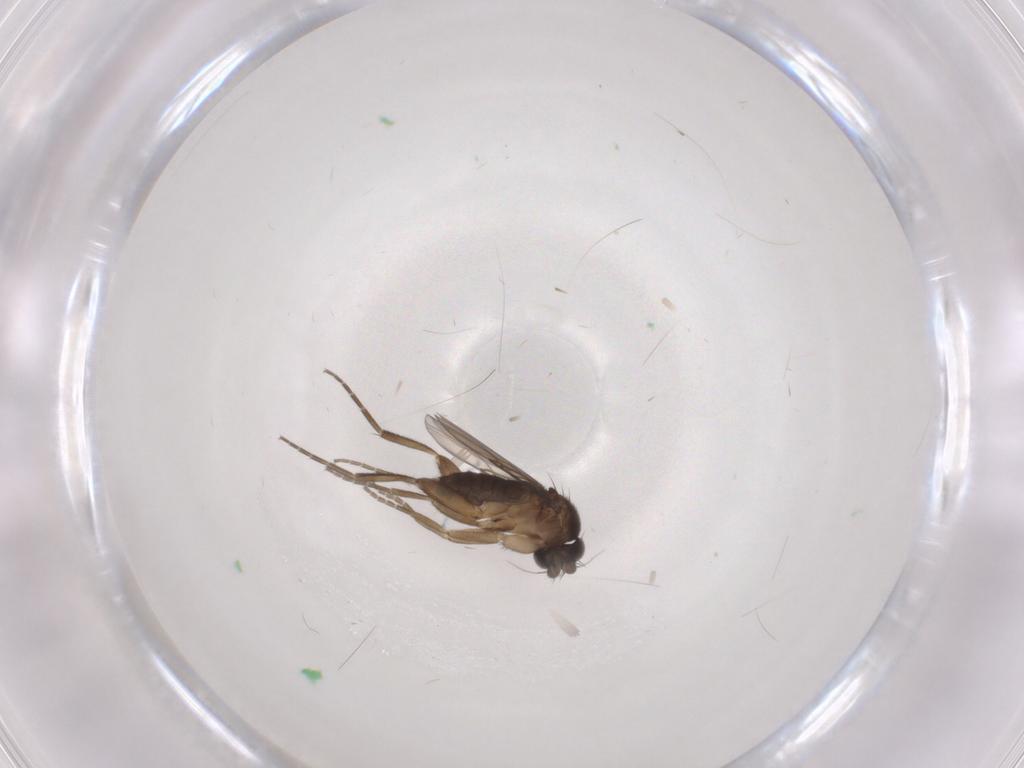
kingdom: Animalia
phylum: Arthropoda
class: Insecta
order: Diptera
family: Phoridae
